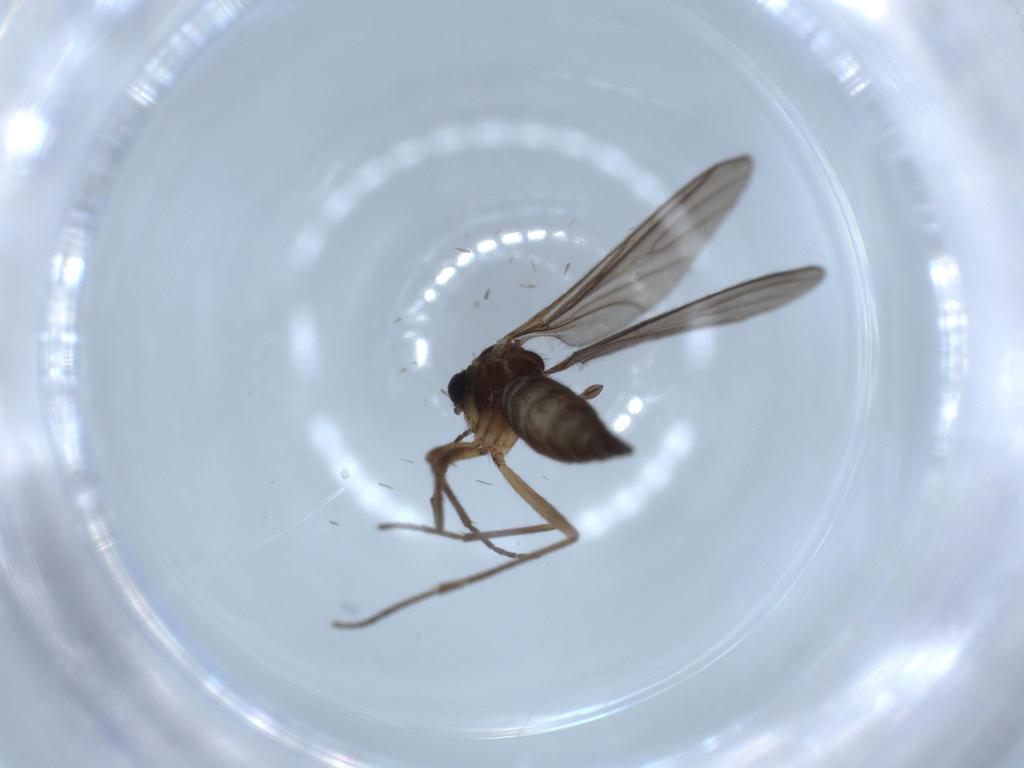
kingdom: Animalia
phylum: Arthropoda
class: Insecta
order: Diptera
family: Sciaridae
